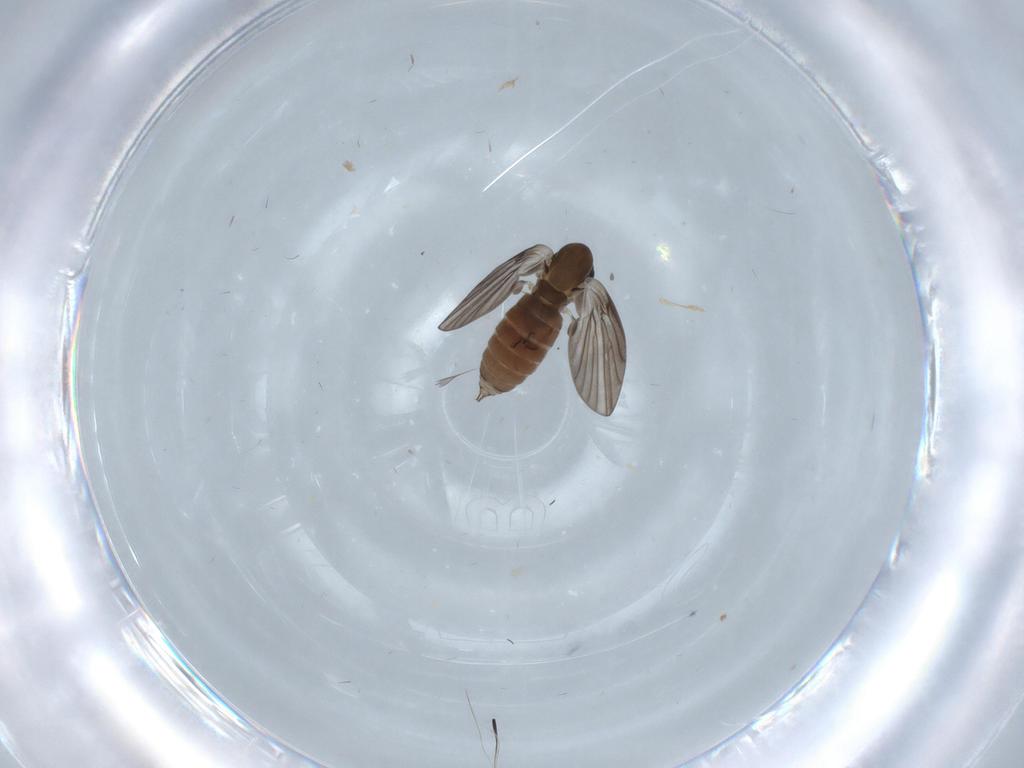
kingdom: Animalia
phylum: Arthropoda
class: Insecta
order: Diptera
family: Psychodidae
